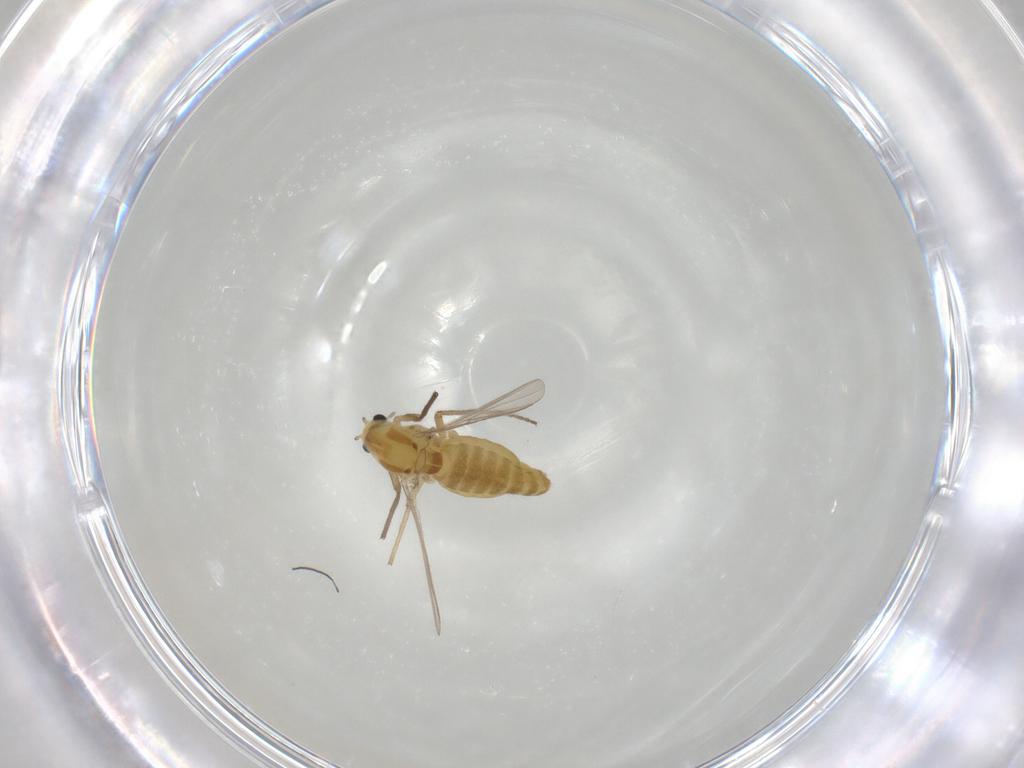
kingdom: Animalia
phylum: Arthropoda
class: Insecta
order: Diptera
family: Chironomidae
